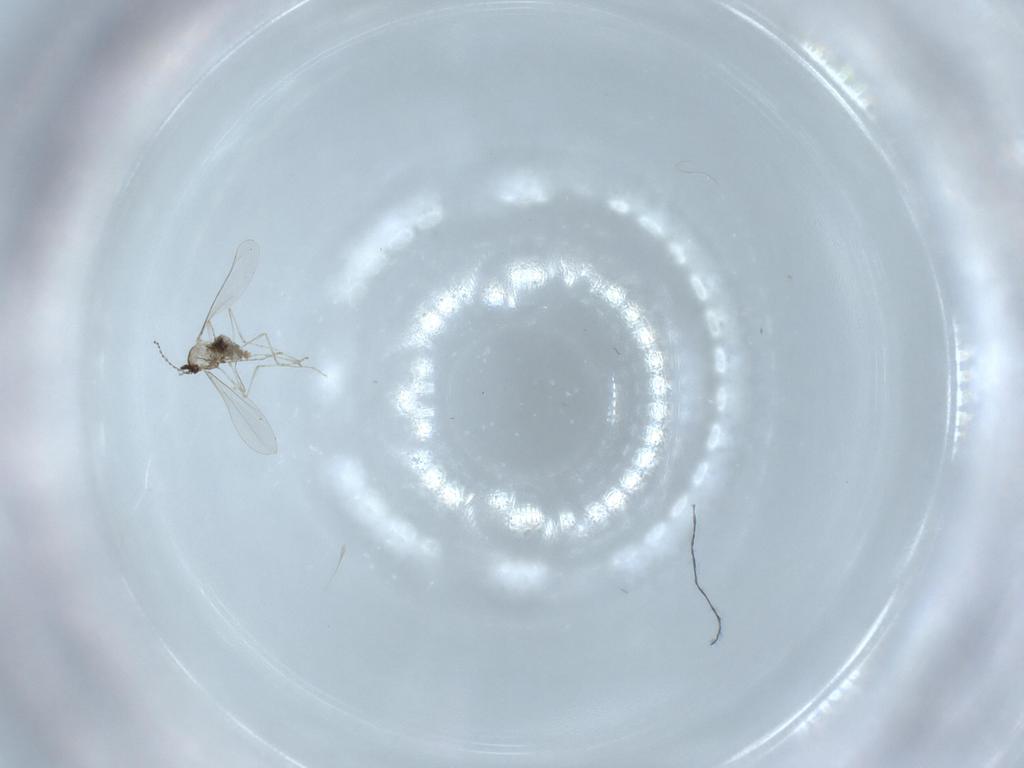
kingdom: Animalia
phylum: Arthropoda
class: Insecta
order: Diptera
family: Cecidomyiidae
